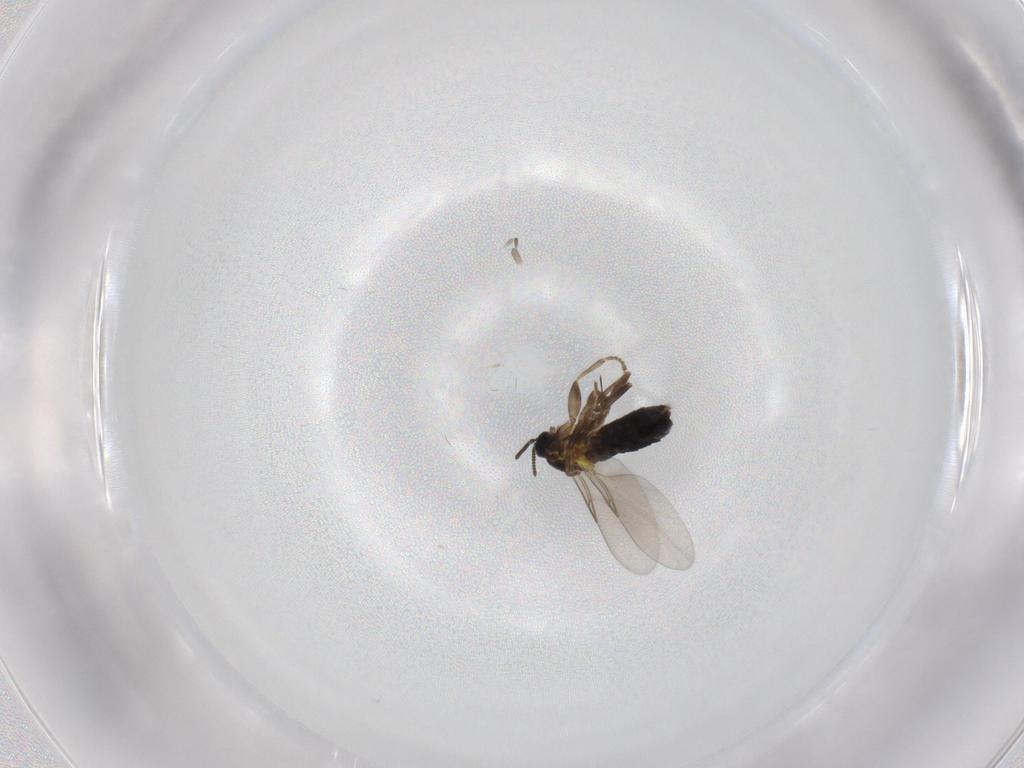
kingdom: Animalia
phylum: Arthropoda
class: Insecta
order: Diptera
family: Scatopsidae
